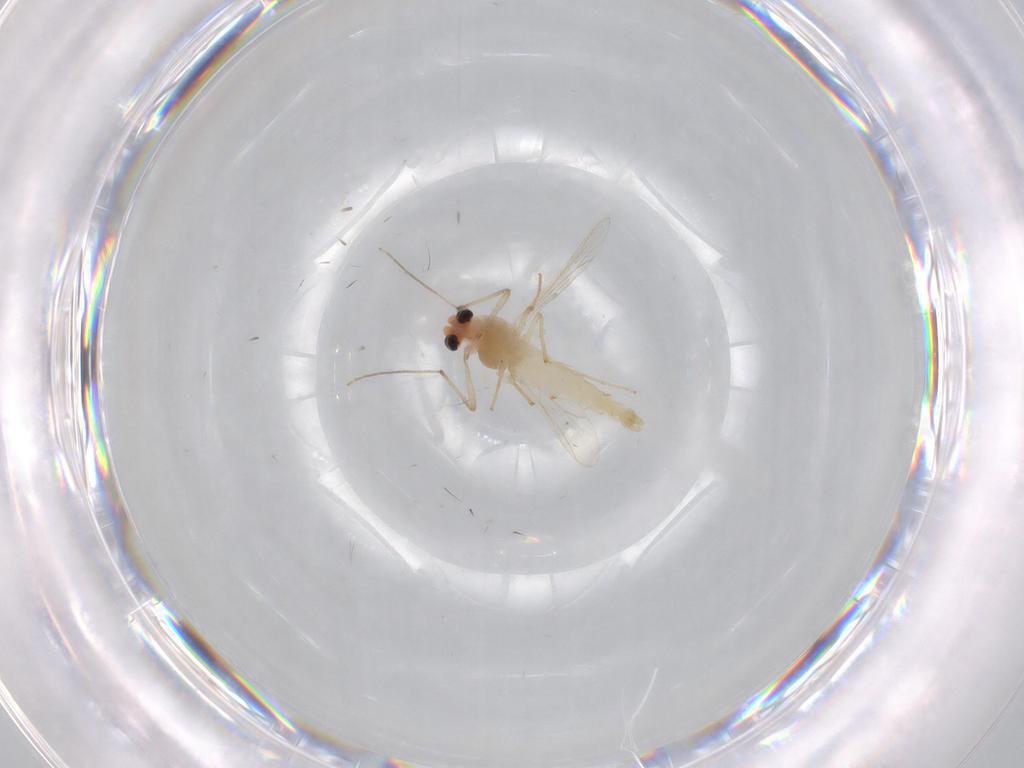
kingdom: Animalia
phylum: Arthropoda
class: Insecta
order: Diptera
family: Chironomidae
